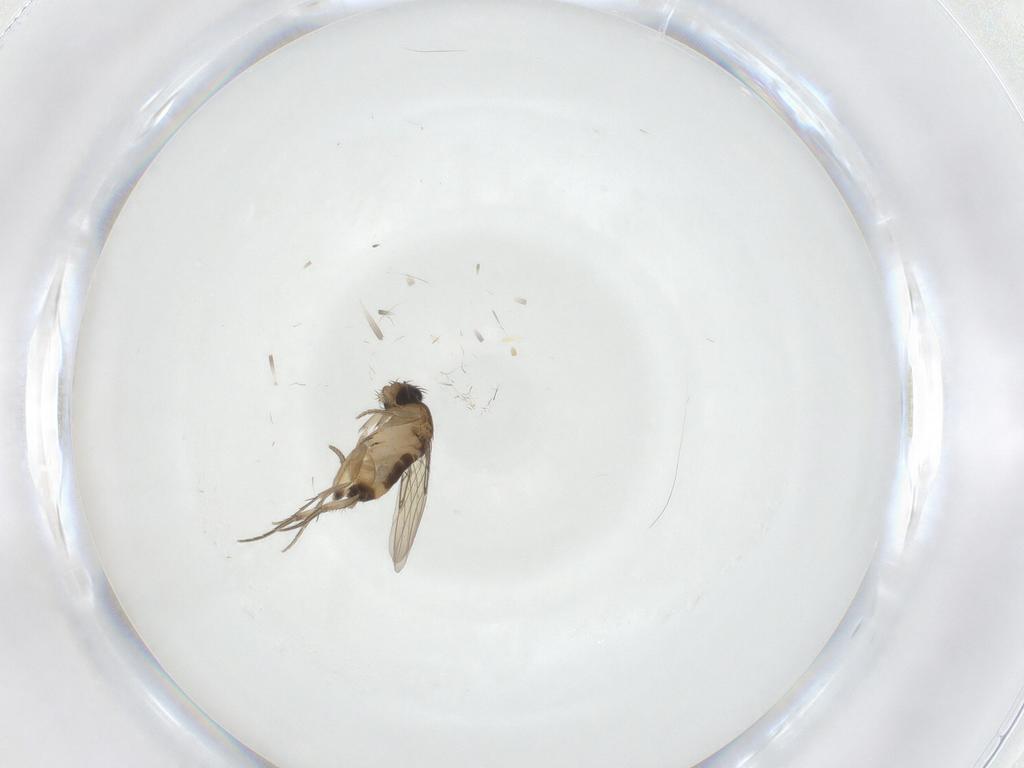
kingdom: Animalia
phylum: Arthropoda
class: Insecta
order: Diptera
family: Phoridae
